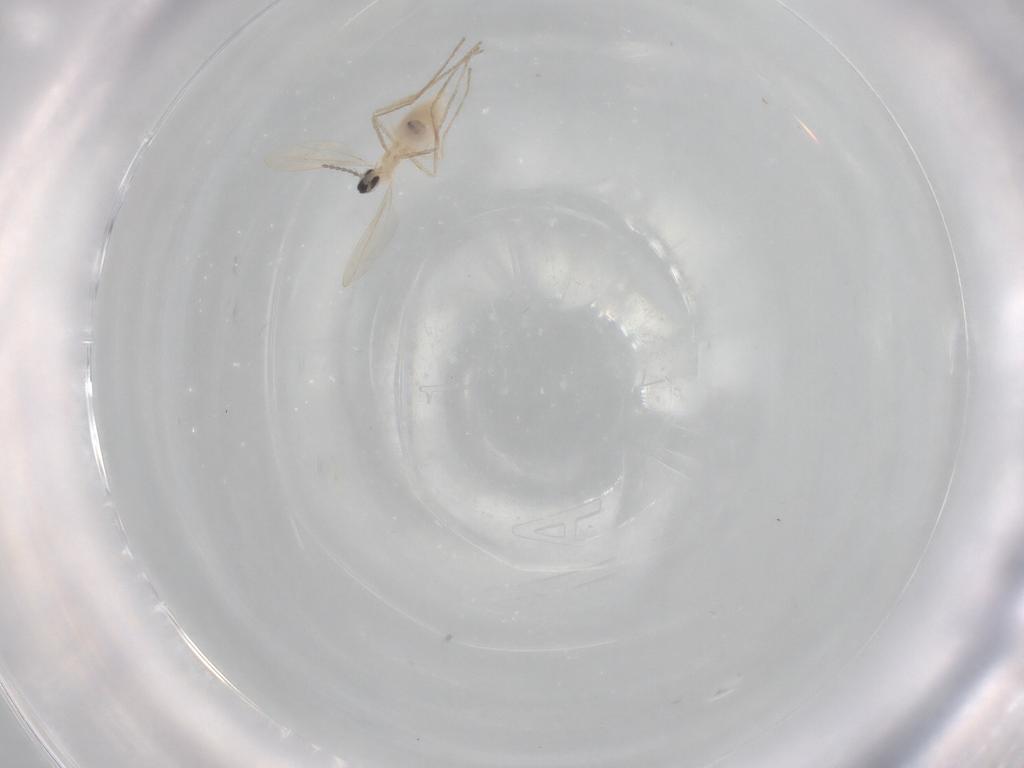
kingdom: Animalia
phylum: Arthropoda
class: Insecta
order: Diptera
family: Cecidomyiidae
